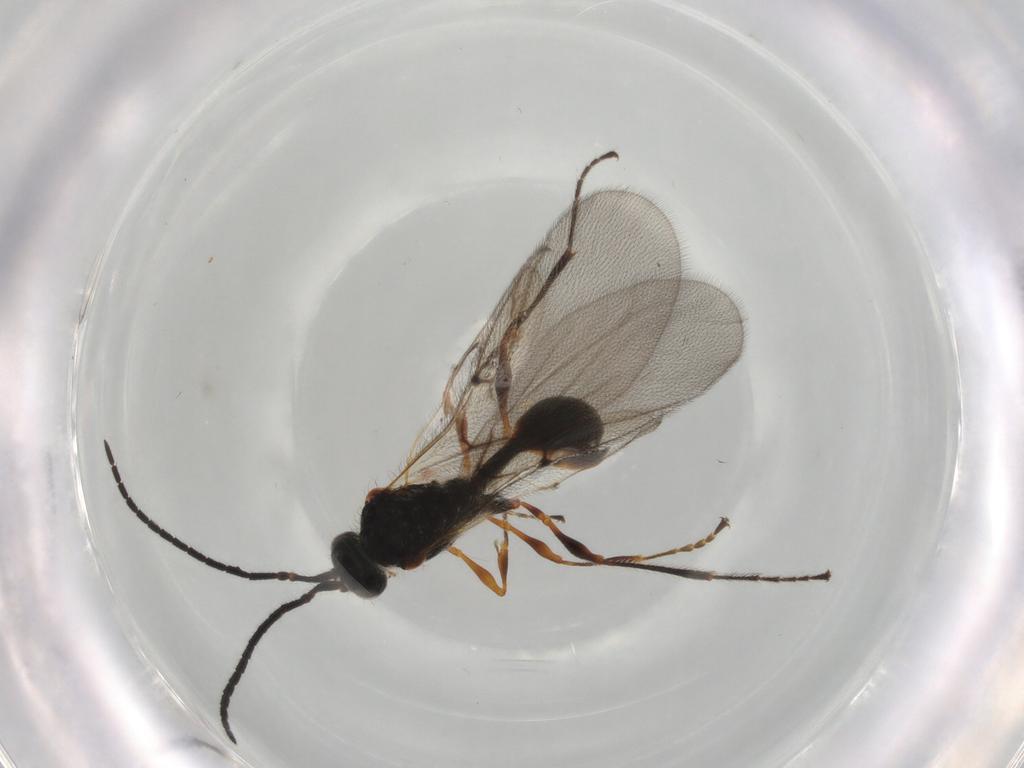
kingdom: Animalia
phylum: Arthropoda
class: Insecta
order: Hymenoptera
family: Diapriidae
